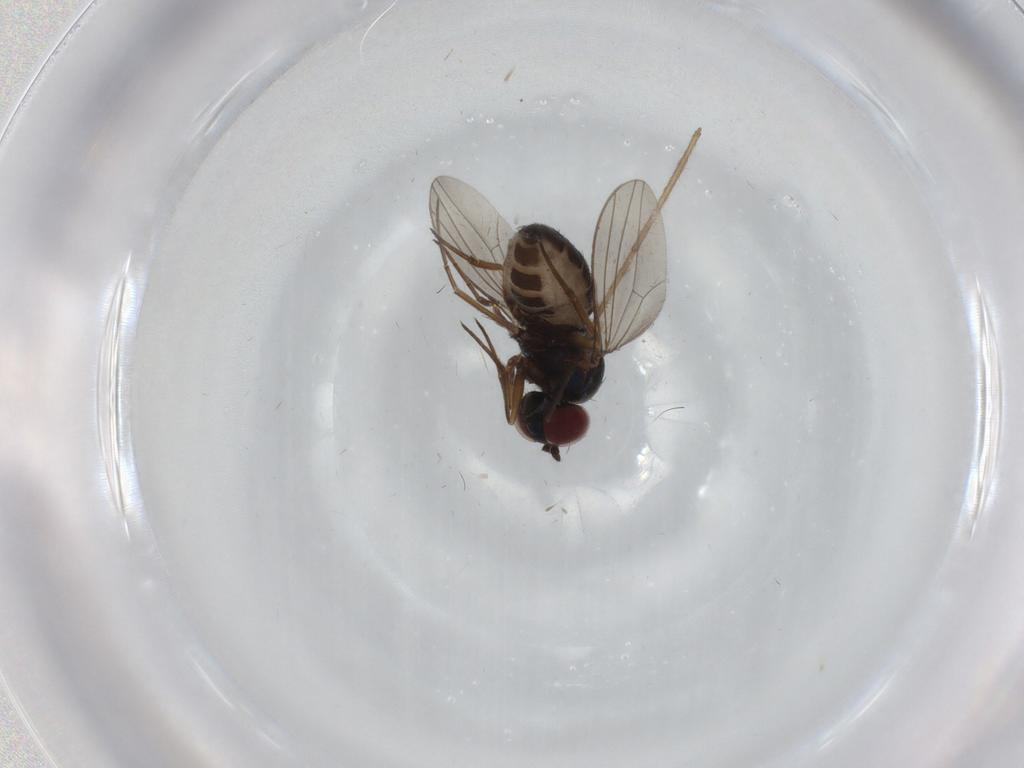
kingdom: Animalia
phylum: Arthropoda
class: Insecta
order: Diptera
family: Dolichopodidae
